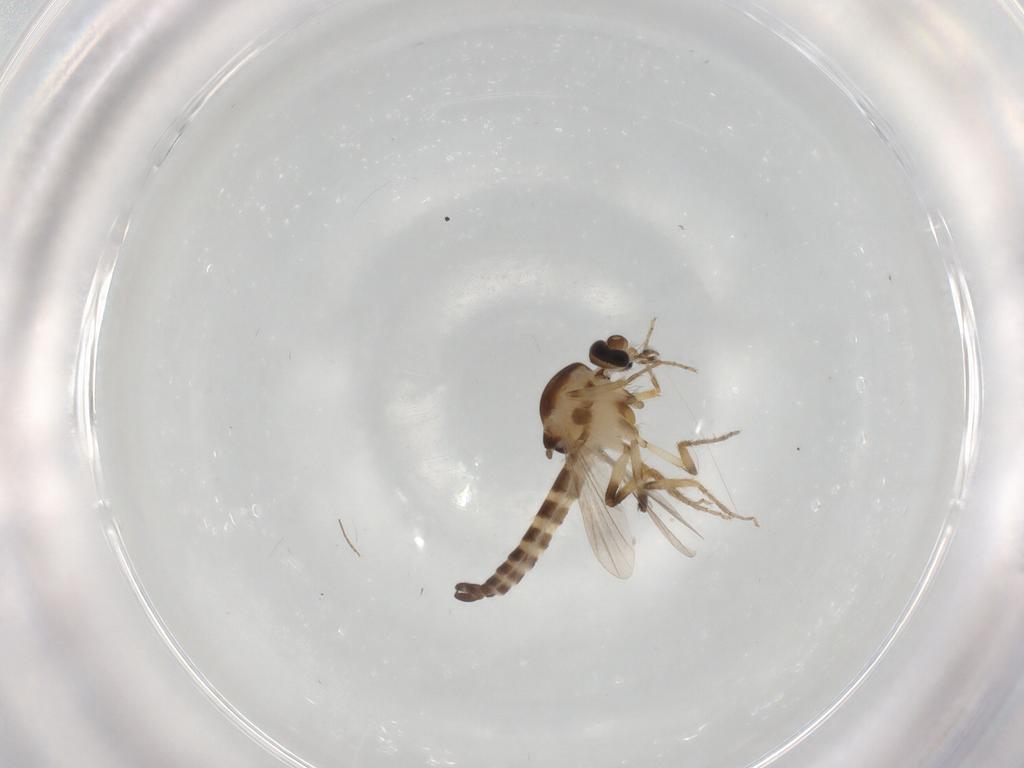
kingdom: Animalia
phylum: Arthropoda
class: Insecta
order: Diptera
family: Ceratopogonidae
